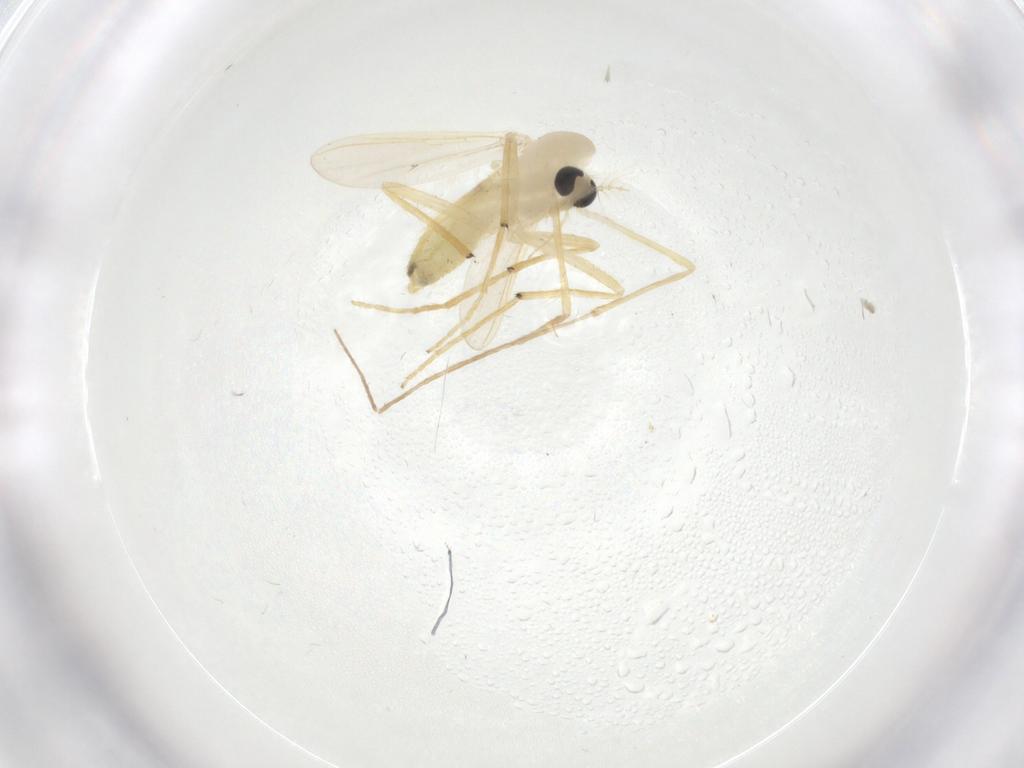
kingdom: Animalia
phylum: Arthropoda
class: Insecta
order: Diptera
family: Chironomidae
